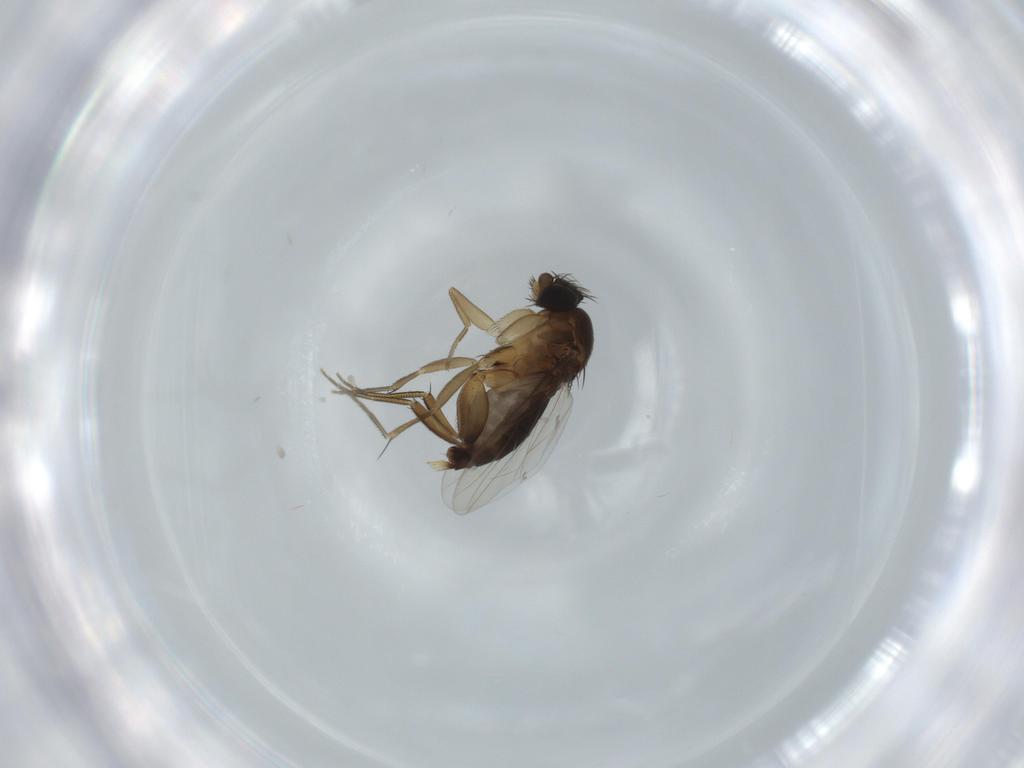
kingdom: Animalia
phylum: Arthropoda
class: Insecta
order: Diptera
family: Phoridae
